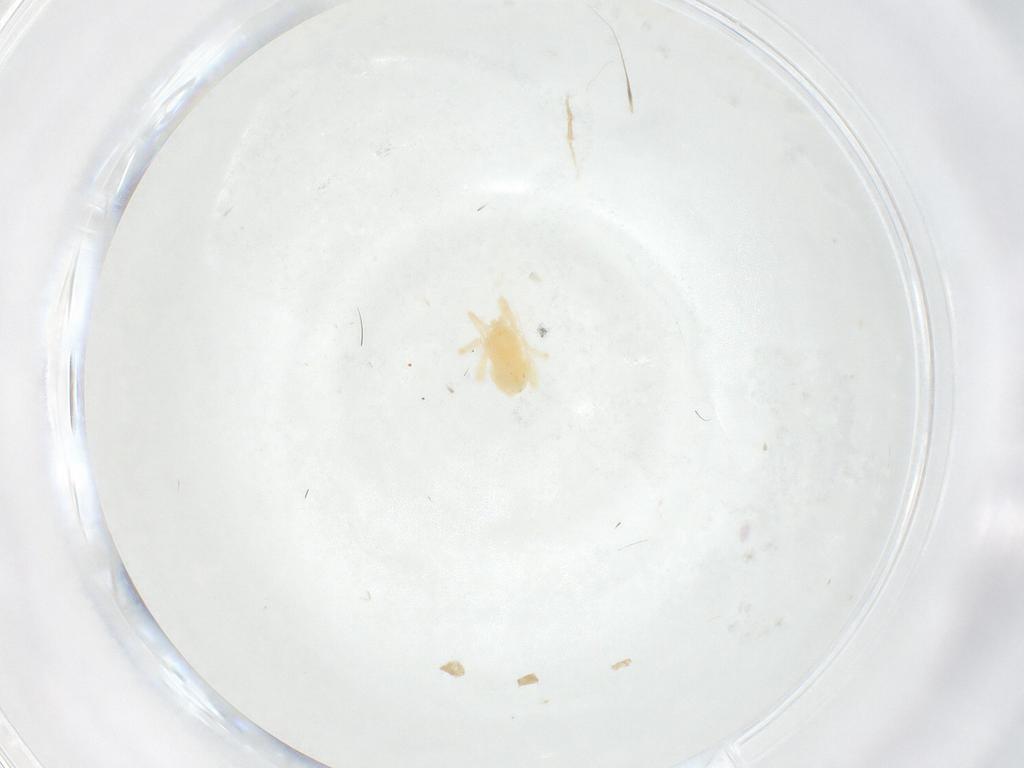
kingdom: Animalia
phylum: Arthropoda
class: Arachnida
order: Trombidiformes
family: Anystidae
